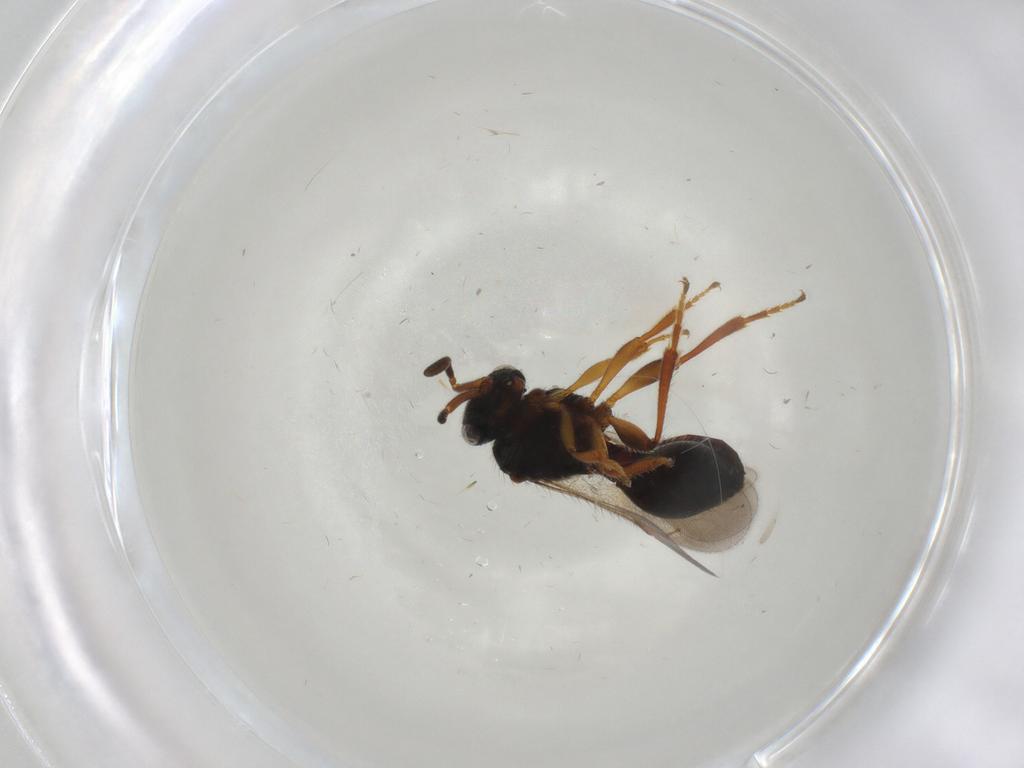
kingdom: Animalia
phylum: Arthropoda
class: Insecta
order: Hymenoptera
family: Scelionidae
